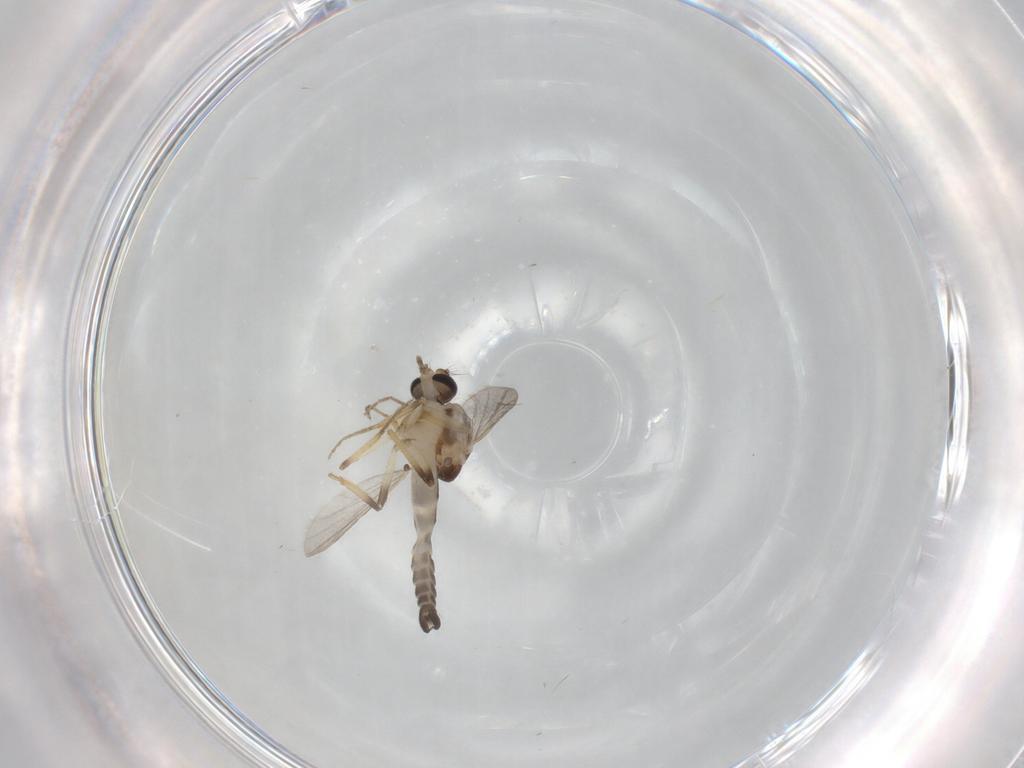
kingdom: Animalia
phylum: Arthropoda
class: Insecta
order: Diptera
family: Ceratopogonidae
